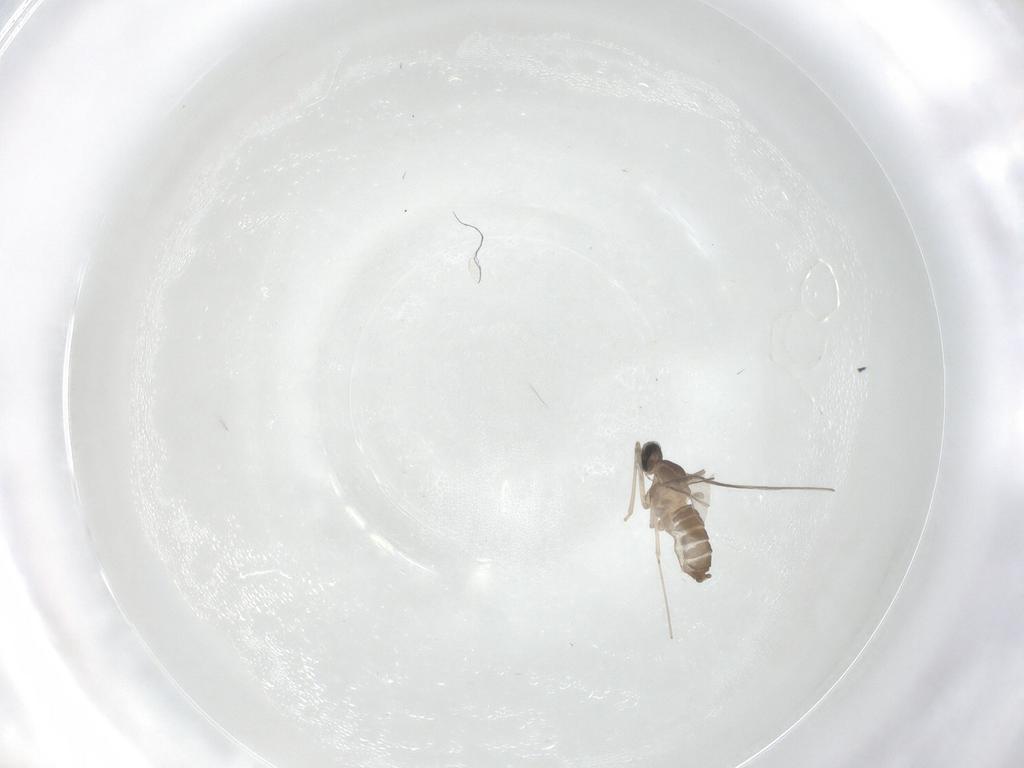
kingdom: Animalia
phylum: Arthropoda
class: Insecta
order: Diptera
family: Cecidomyiidae
